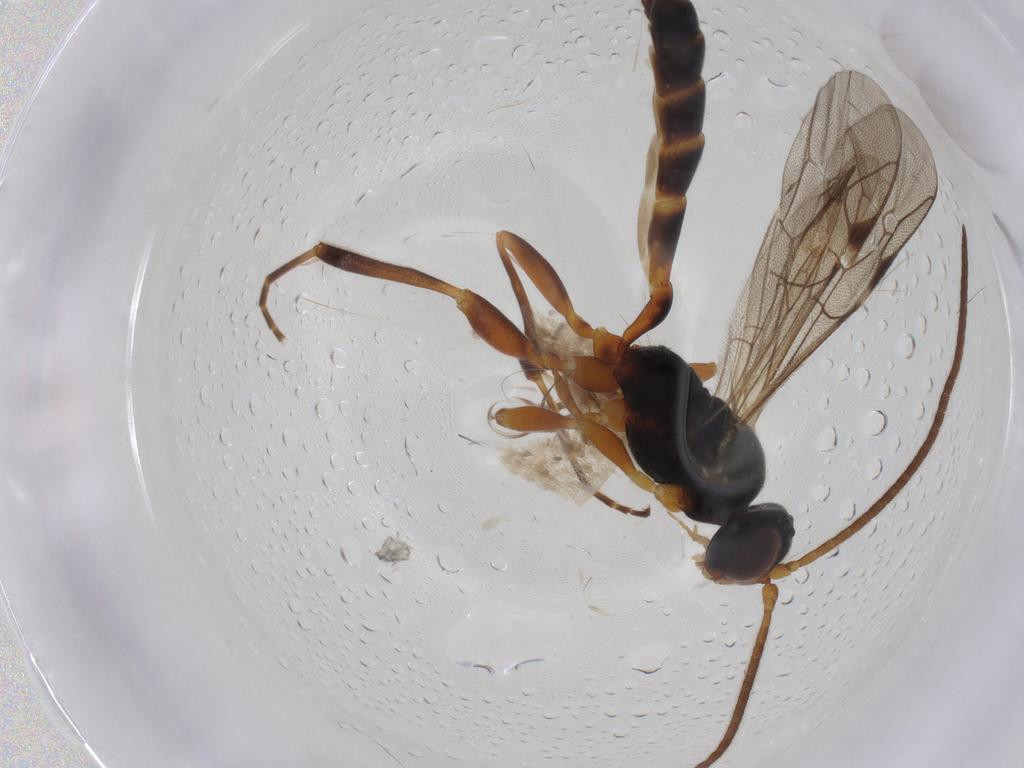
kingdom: Animalia
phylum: Arthropoda
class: Insecta
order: Hymenoptera
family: Ichneumonidae
